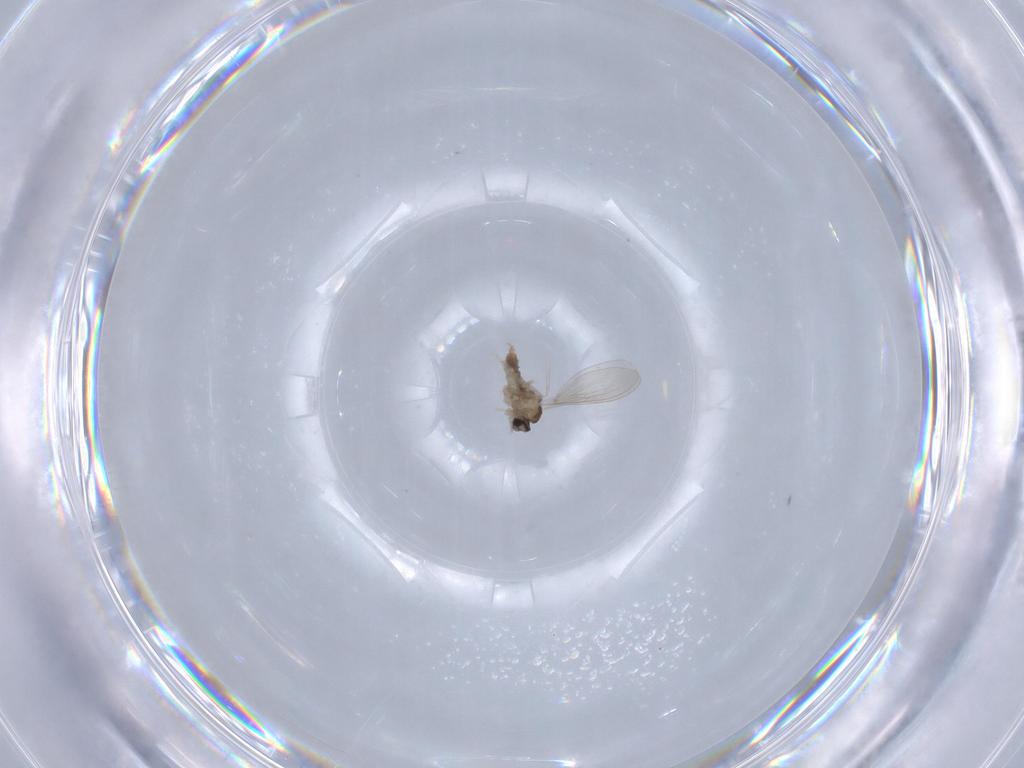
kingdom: Animalia
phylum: Arthropoda
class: Insecta
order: Diptera
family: Cecidomyiidae
